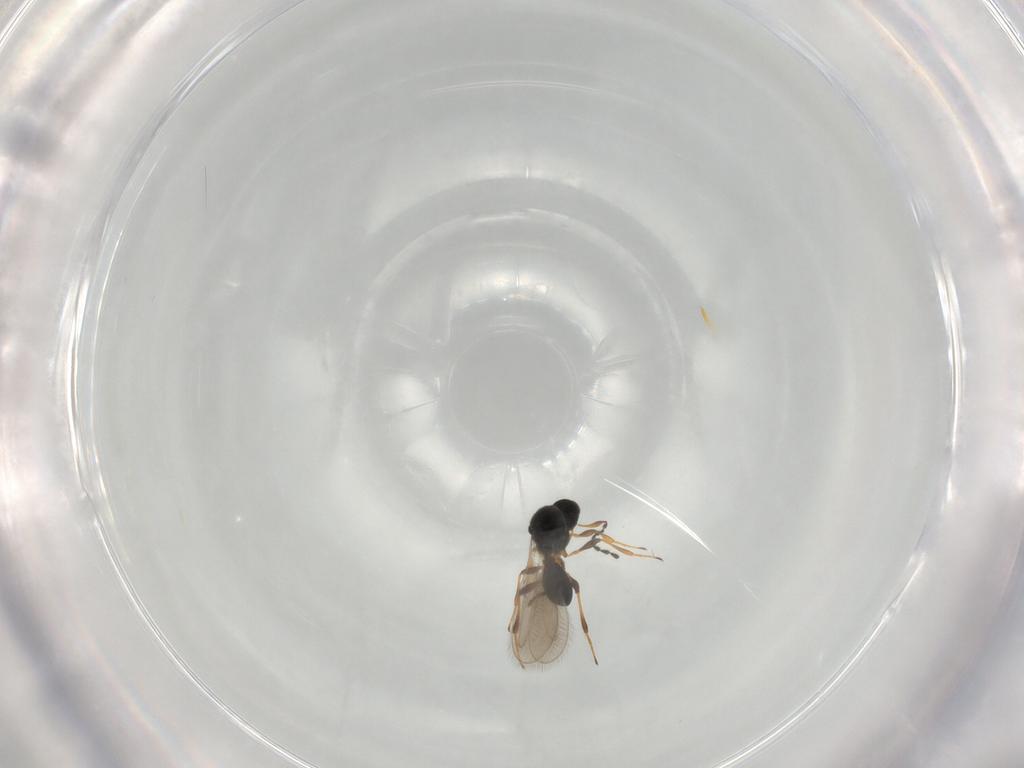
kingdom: Animalia
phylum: Arthropoda
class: Insecta
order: Hymenoptera
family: Platygastridae
